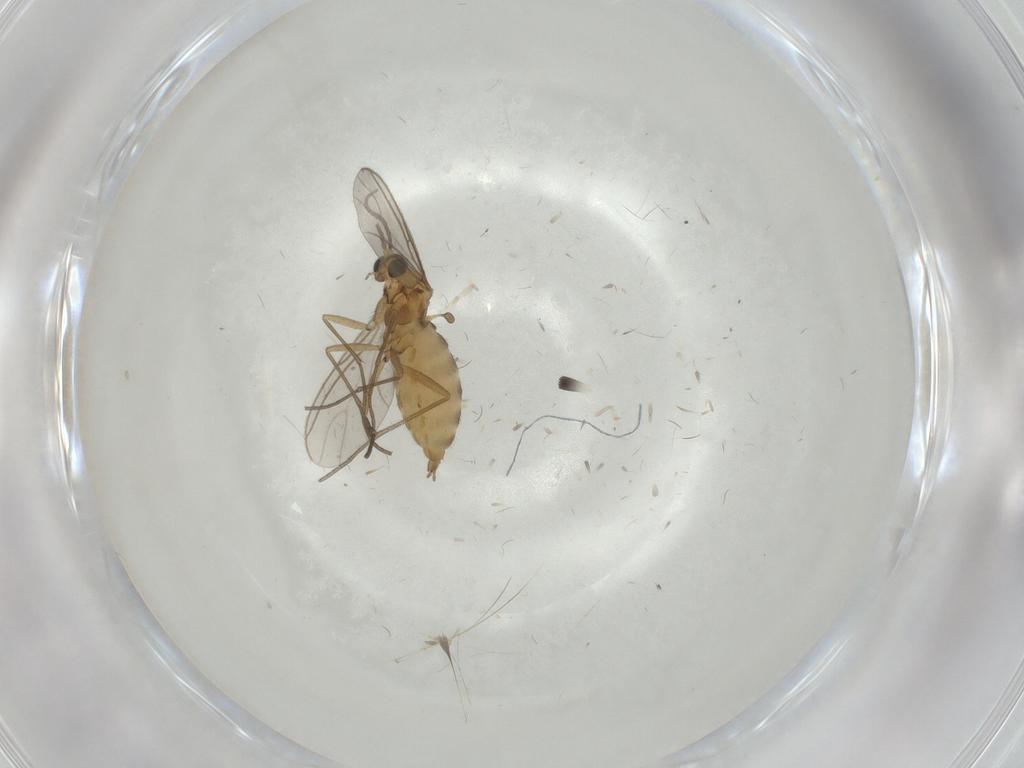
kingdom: Animalia
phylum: Arthropoda
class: Insecta
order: Diptera
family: Sciaridae
